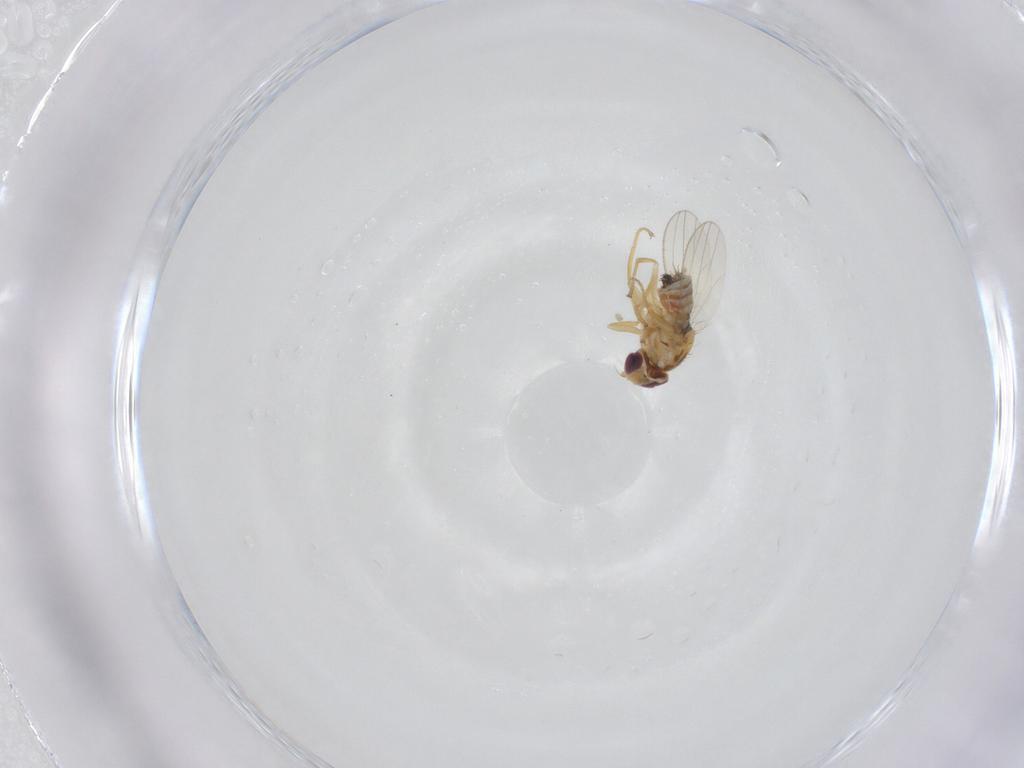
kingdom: Animalia
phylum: Arthropoda
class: Insecta
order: Diptera
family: Chyromyidae
